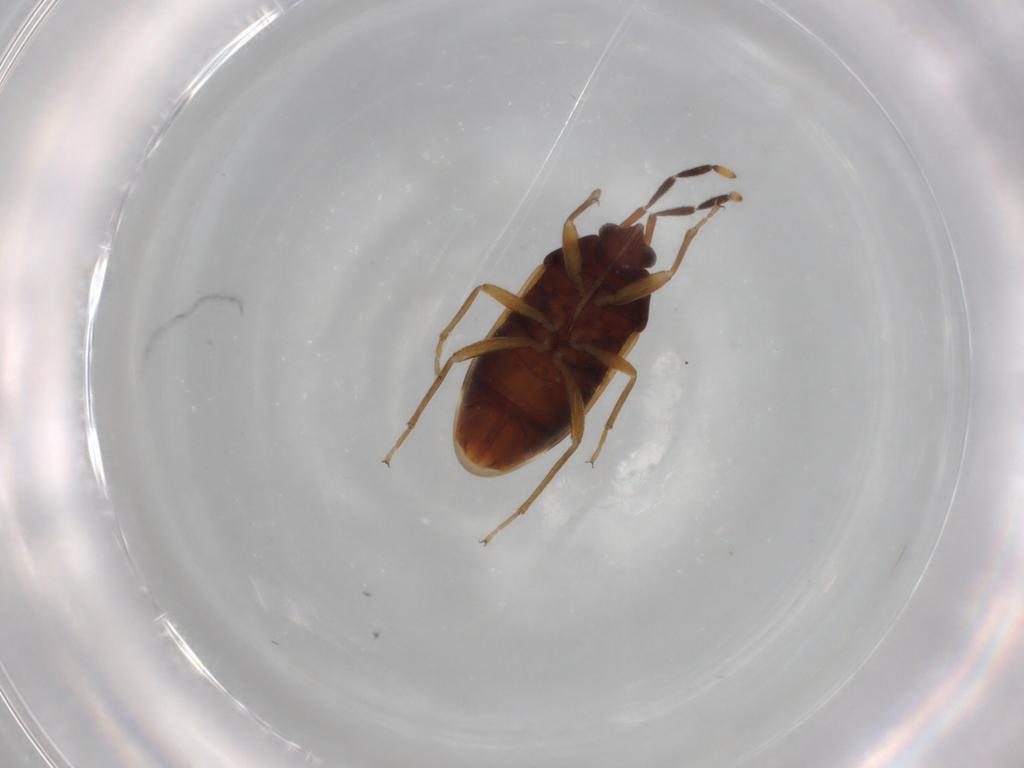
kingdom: Animalia
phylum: Arthropoda
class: Insecta
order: Hemiptera
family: Rhyparochromidae
